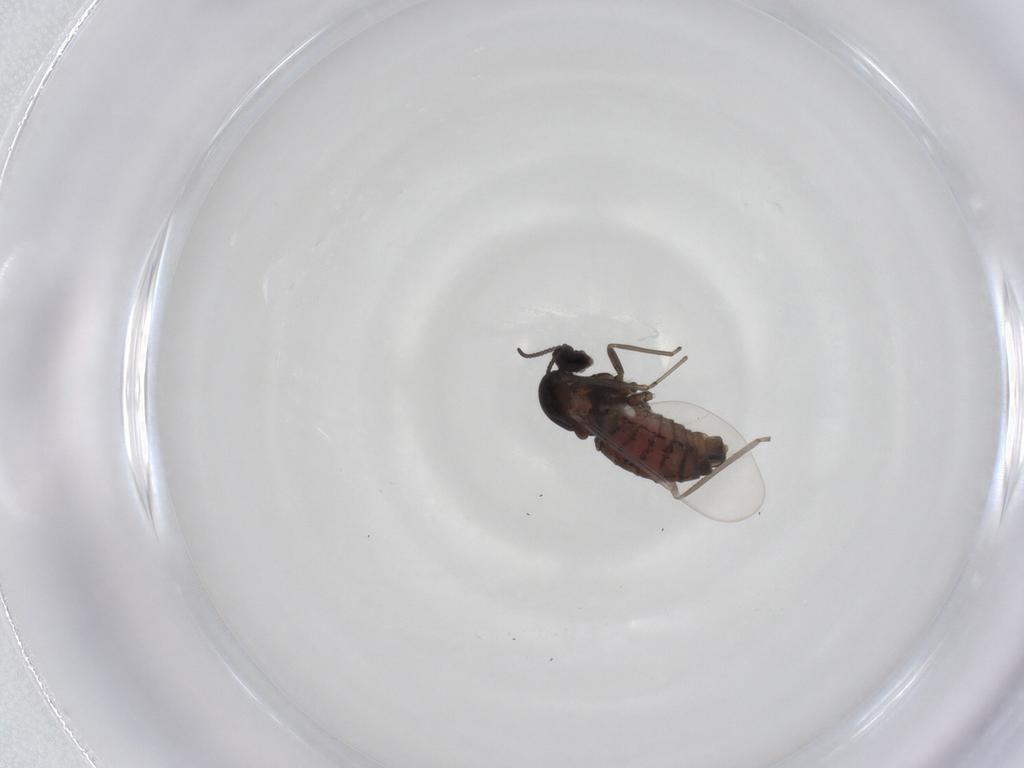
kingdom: Animalia
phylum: Arthropoda
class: Insecta
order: Diptera
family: Cecidomyiidae
